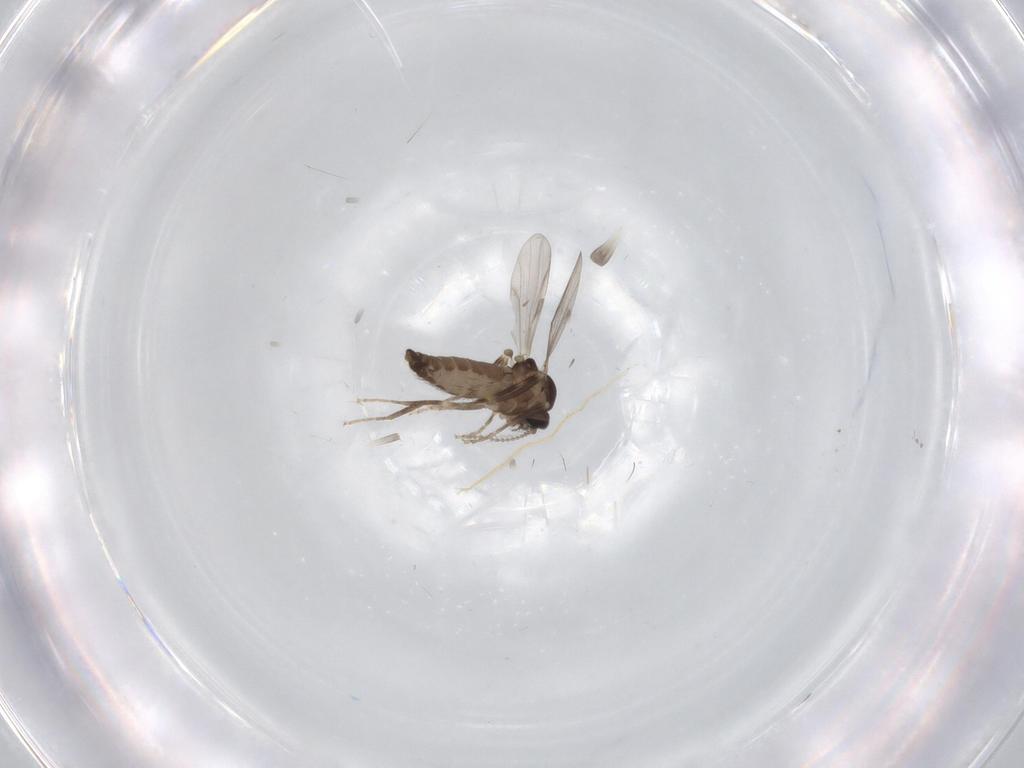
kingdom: Animalia
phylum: Arthropoda
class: Insecta
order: Diptera
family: Ceratopogonidae
